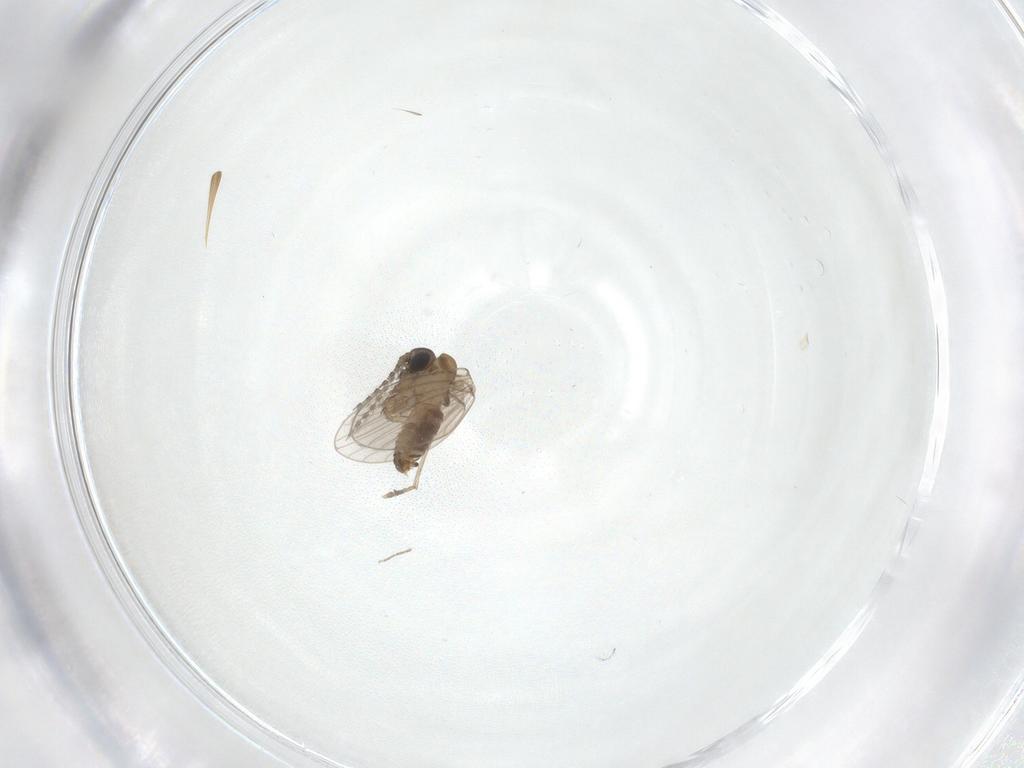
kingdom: Animalia
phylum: Arthropoda
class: Insecta
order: Diptera
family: Chironomidae
